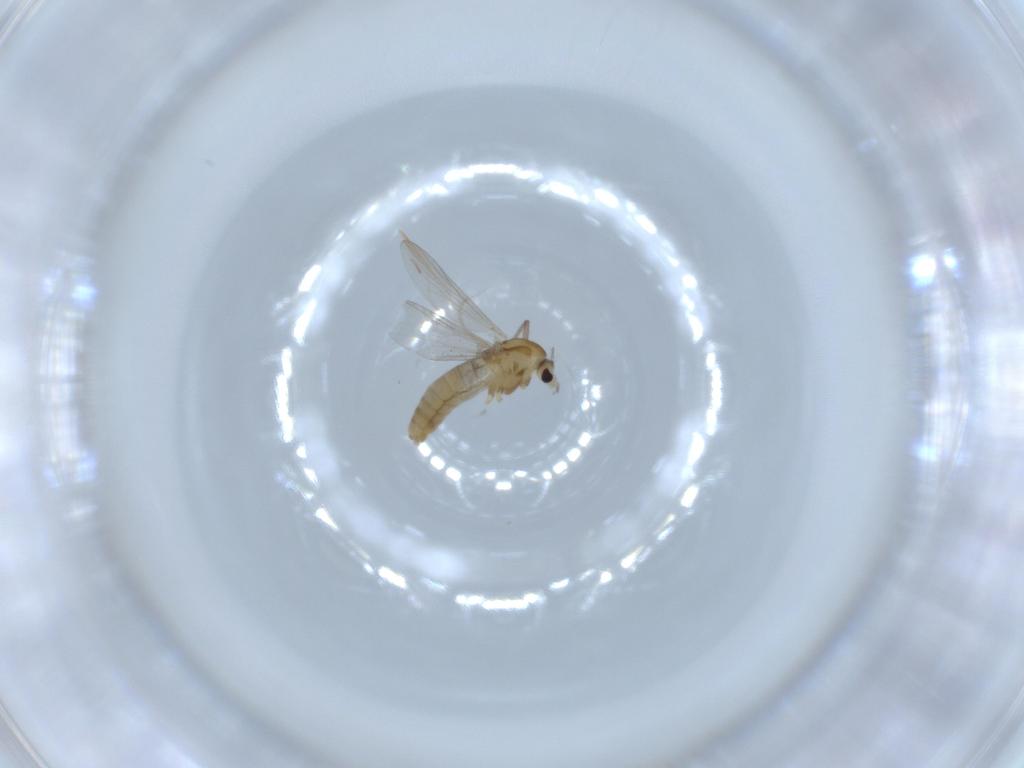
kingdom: Animalia
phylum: Arthropoda
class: Insecta
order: Diptera
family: Chironomidae
